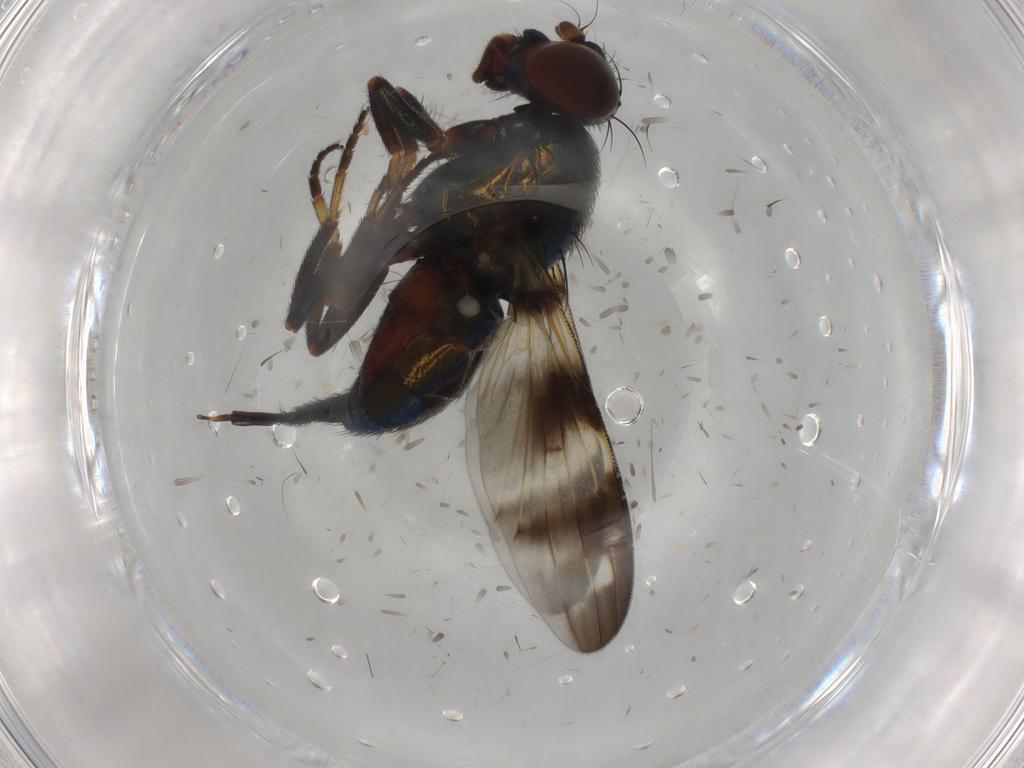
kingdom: Animalia
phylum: Arthropoda
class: Insecta
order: Diptera
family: Ulidiidae
